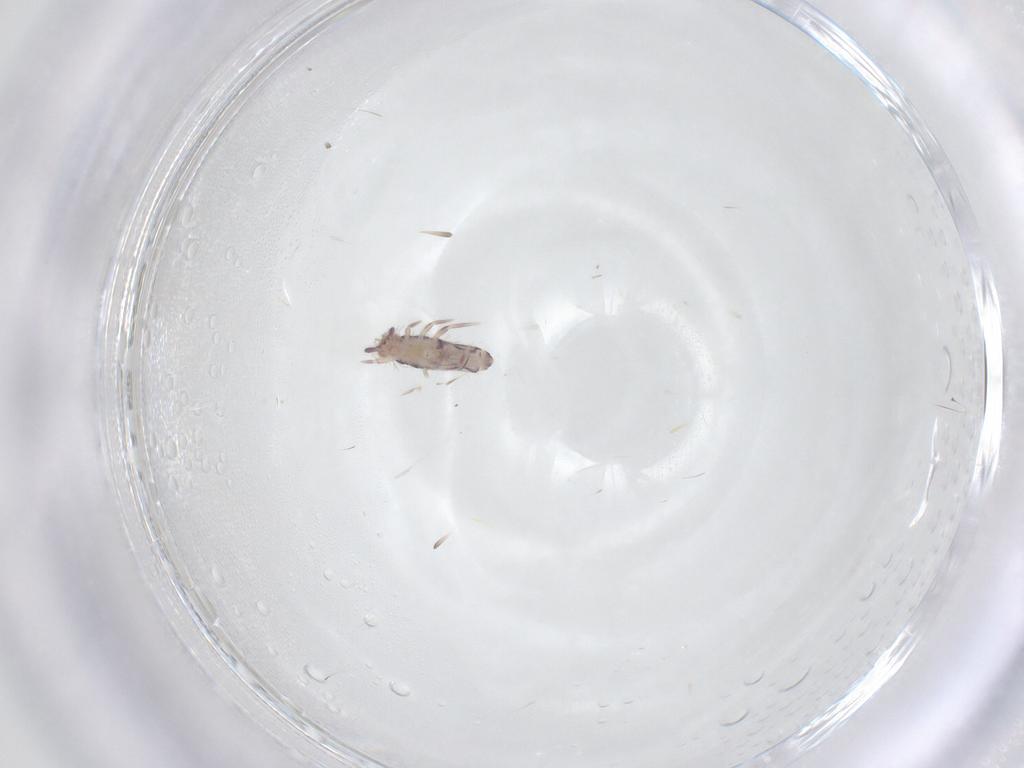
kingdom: Animalia
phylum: Arthropoda
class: Collembola
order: Entomobryomorpha
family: Entomobryidae
